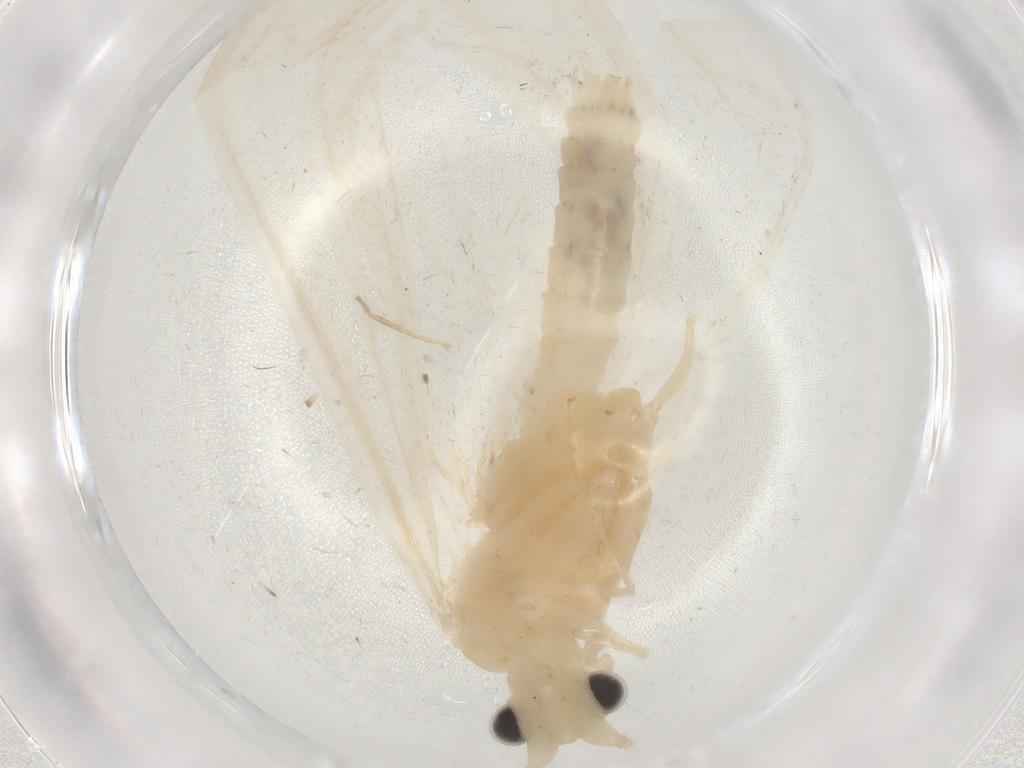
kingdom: Animalia
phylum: Arthropoda
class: Insecta
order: Trichoptera
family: Leptoceridae
